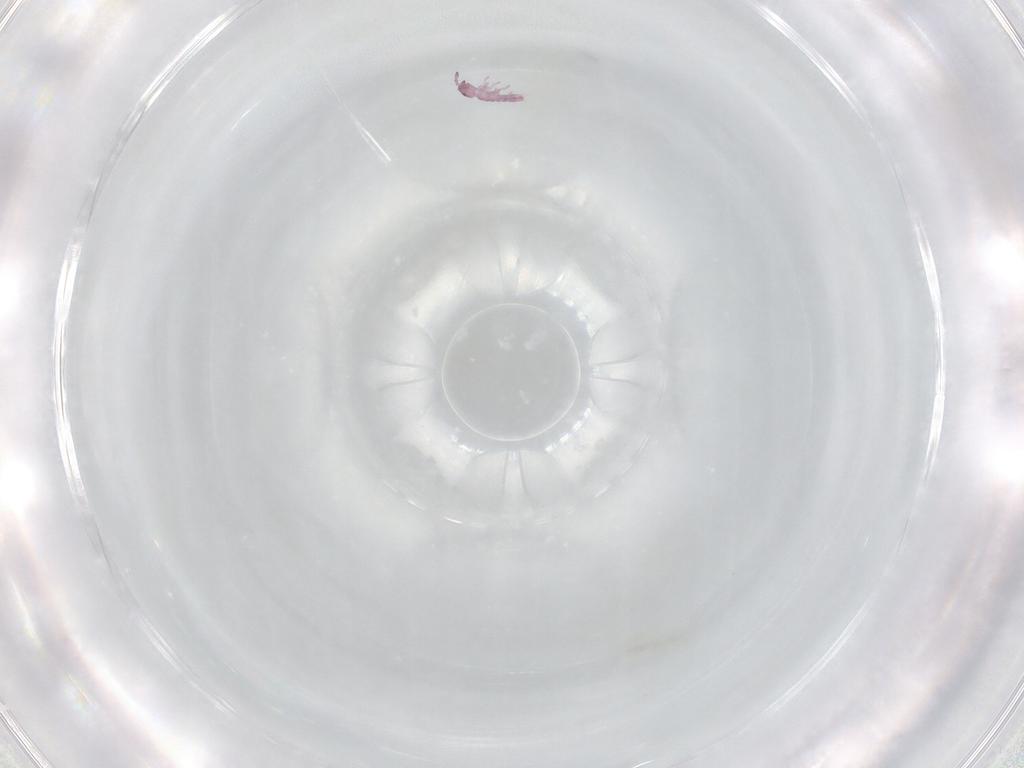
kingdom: Animalia
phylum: Arthropoda
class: Collembola
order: Entomobryomorpha
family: Isotomidae
